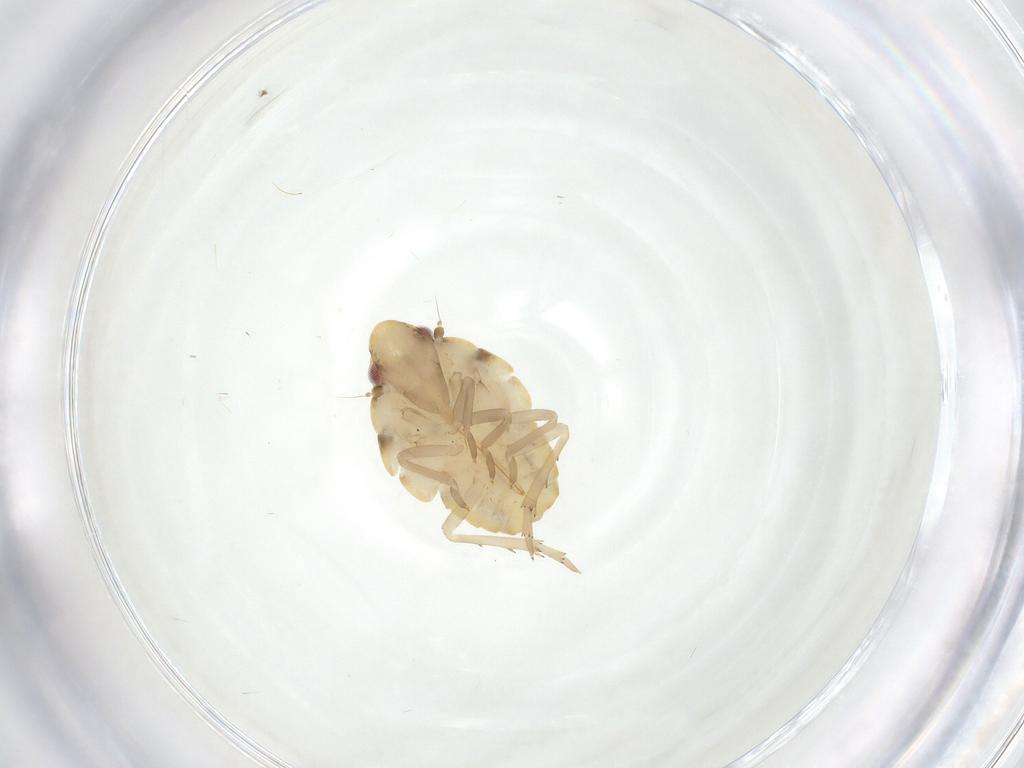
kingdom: Animalia
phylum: Arthropoda
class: Insecta
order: Hemiptera
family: Flatidae
